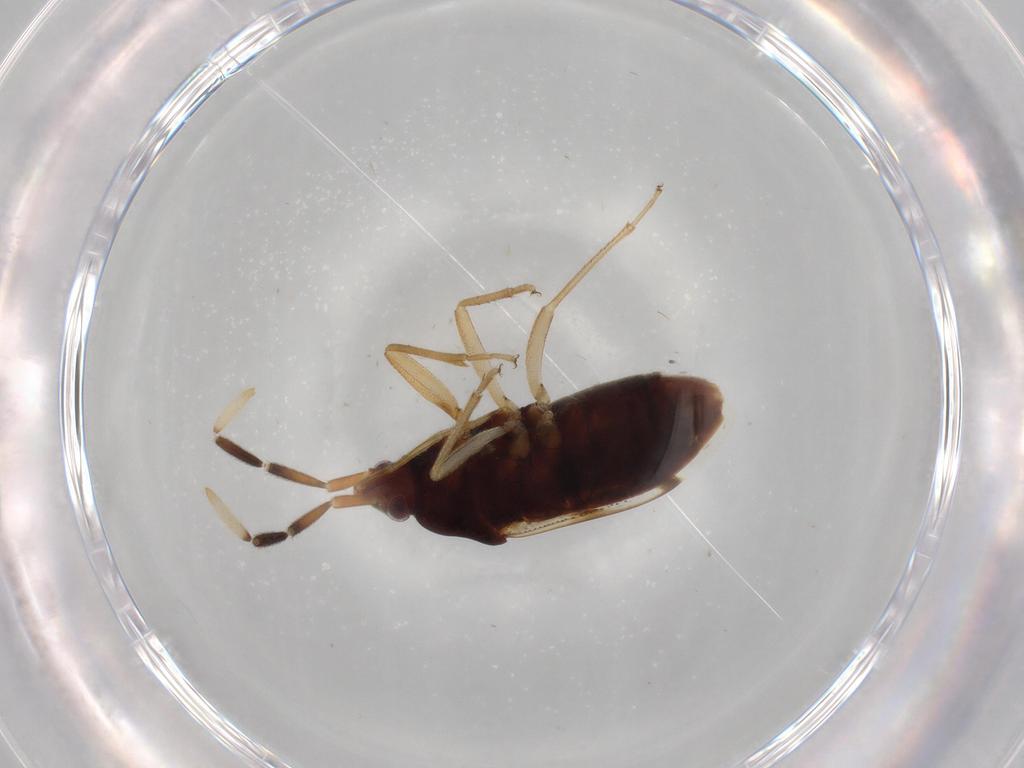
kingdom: Animalia
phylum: Arthropoda
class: Insecta
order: Hemiptera
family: Rhyparochromidae
